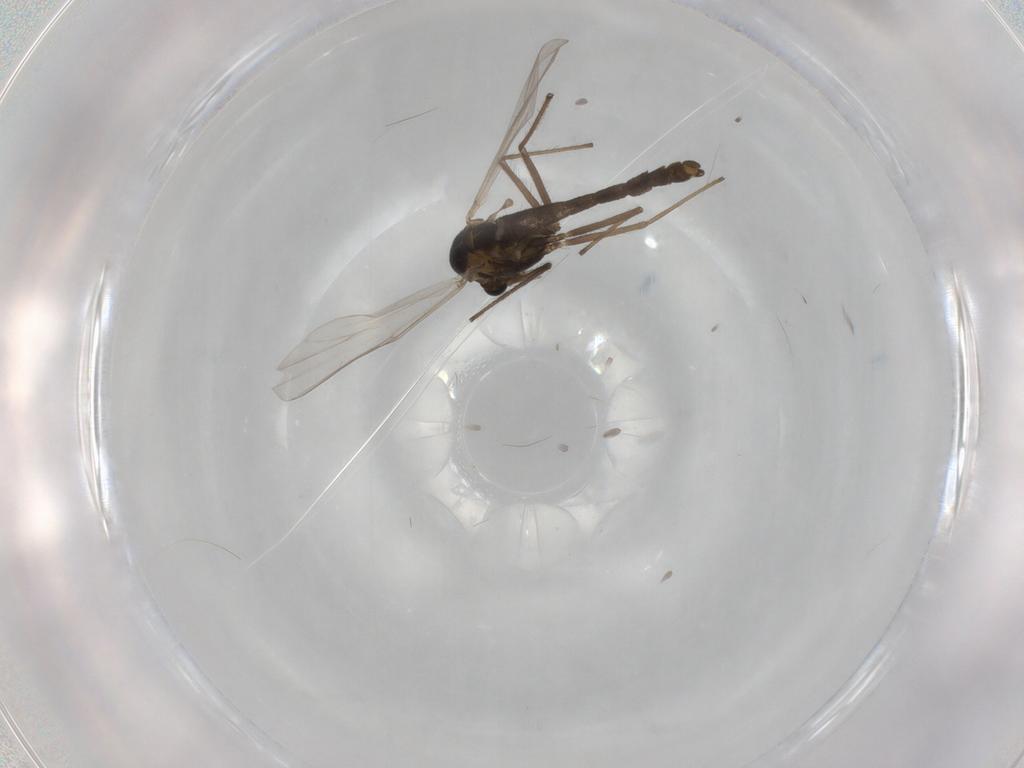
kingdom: Animalia
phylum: Arthropoda
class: Insecta
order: Diptera
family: Chironomidae
